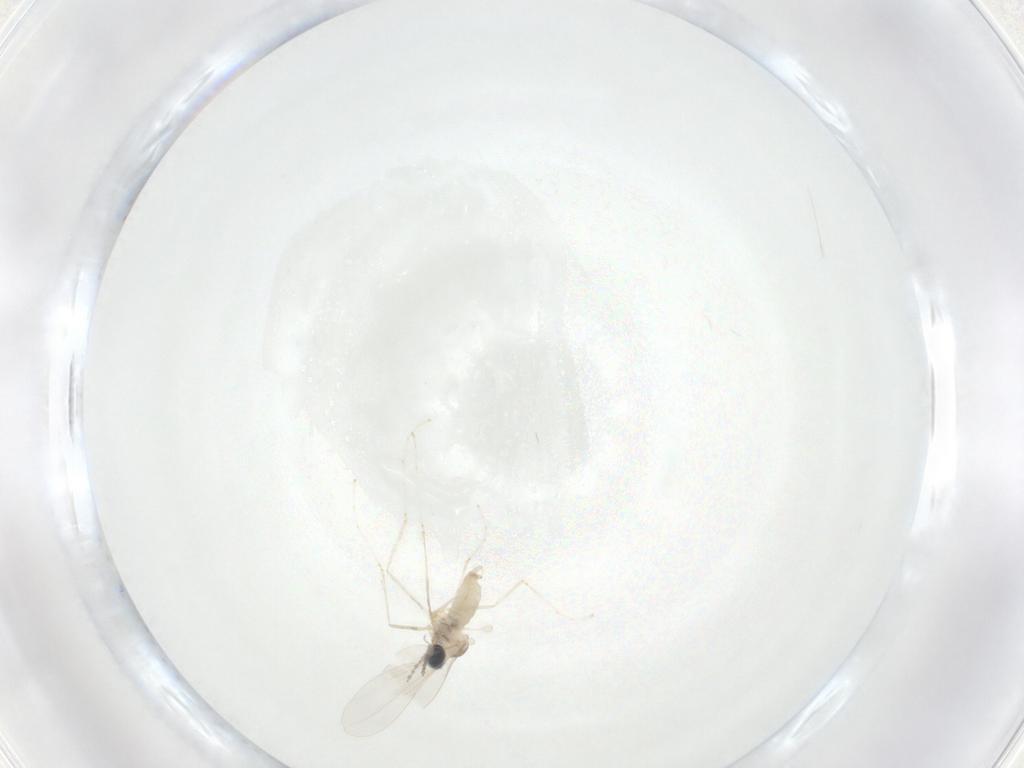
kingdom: Animalia
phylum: Arthropoda
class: Insecta
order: Diptera
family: Cecidomyiidae
